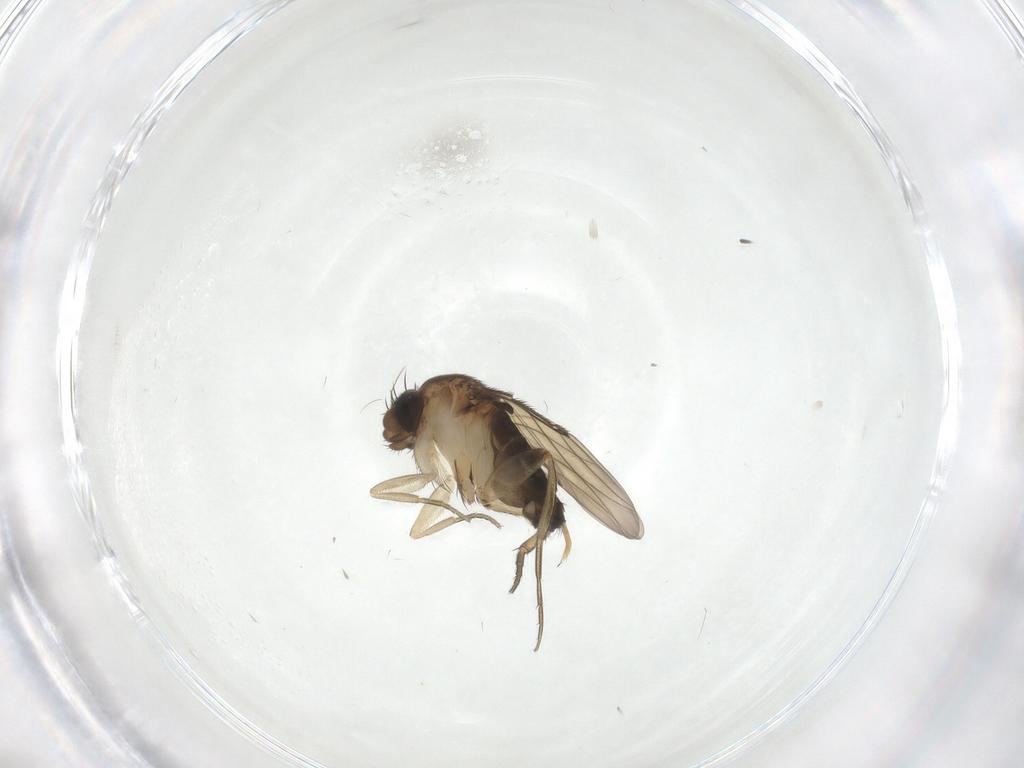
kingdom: Animalia
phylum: Arthropoda
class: Insecta
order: Diptera
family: Phoridae
